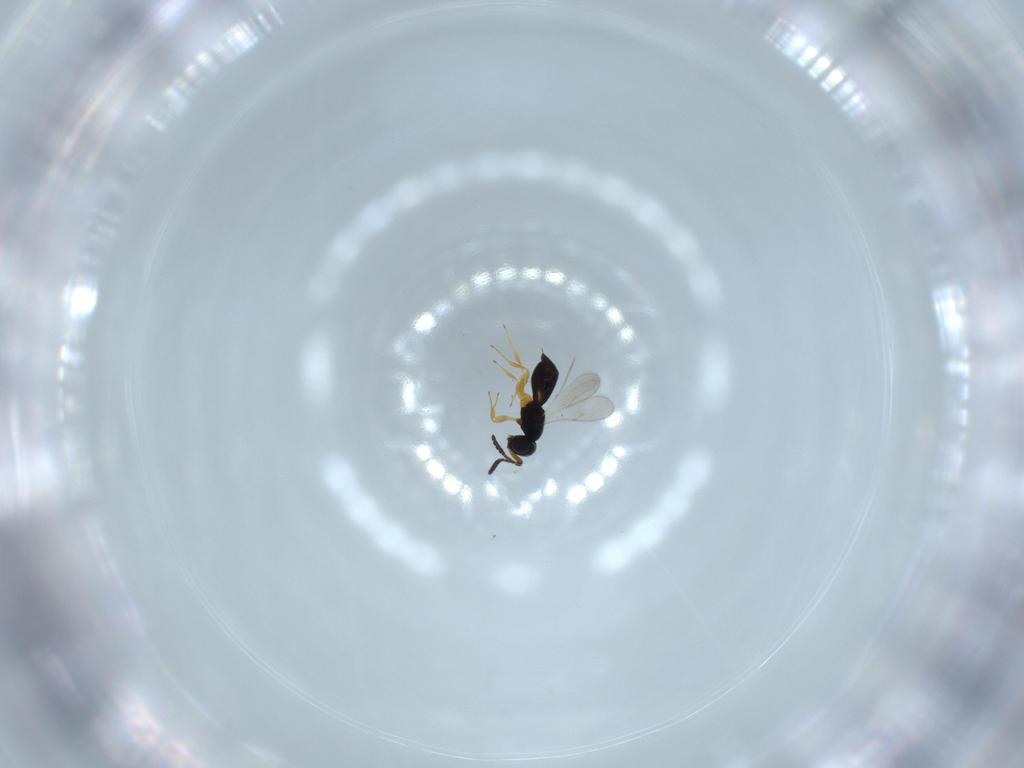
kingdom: Animalia
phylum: Arthropoda
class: Insecta
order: Hymenoptera
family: Scelionidae
